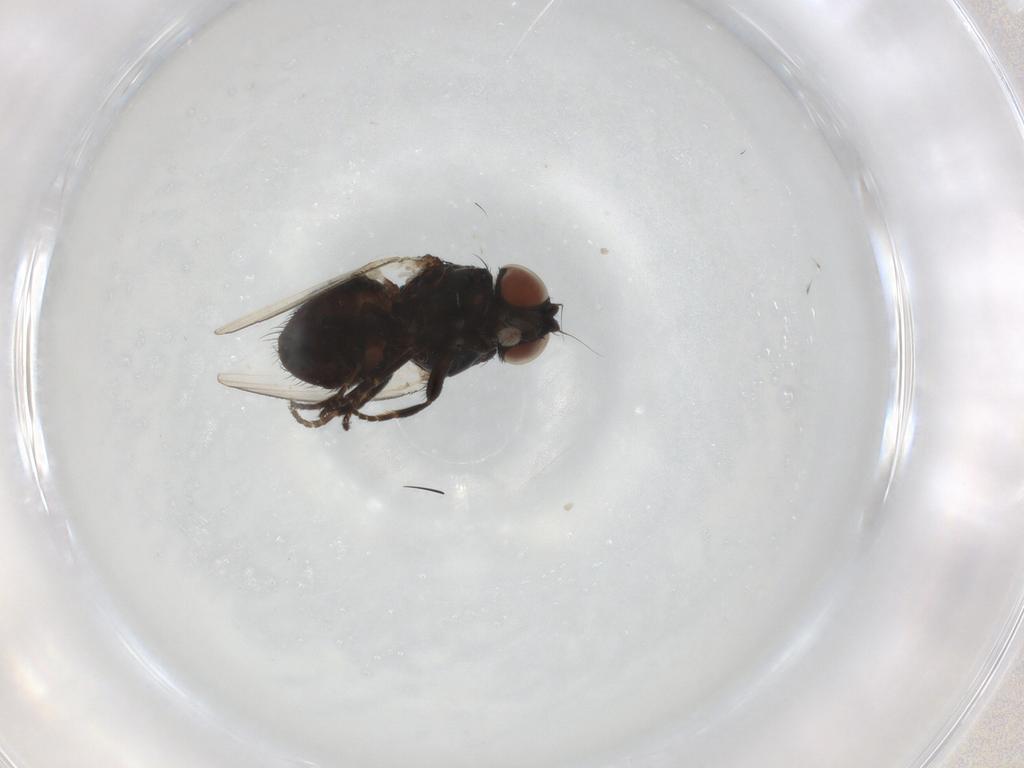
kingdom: Animalia
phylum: Arthropoda
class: Insecta
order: Diptera
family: Milichiidae
